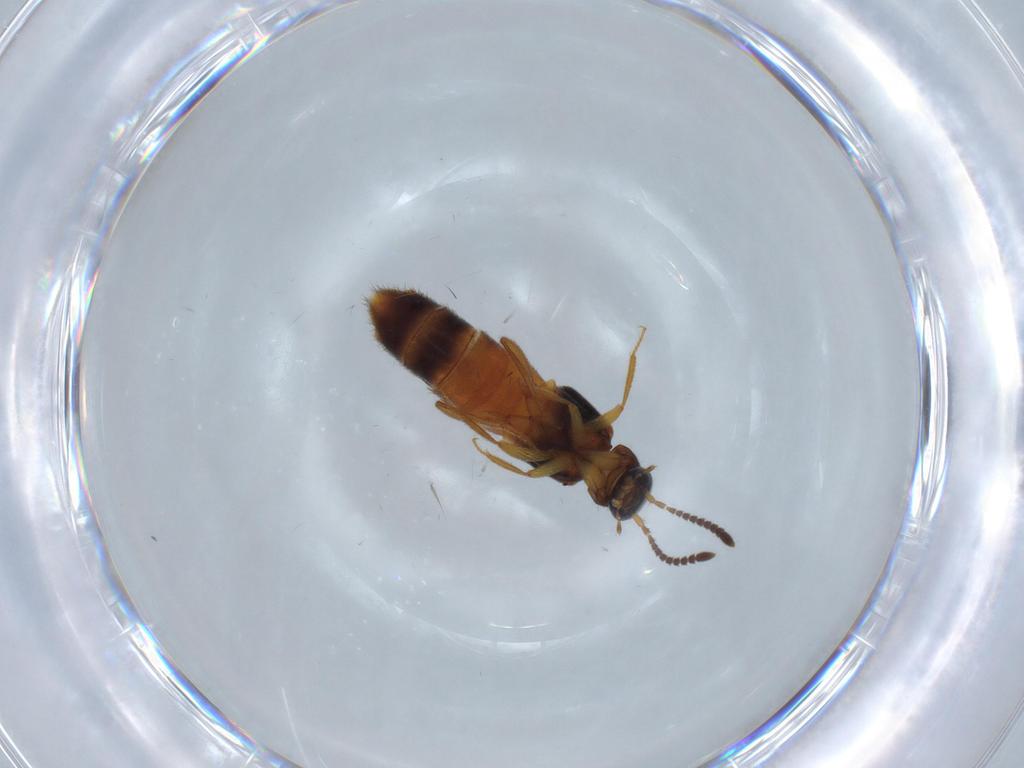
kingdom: Animalia
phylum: Arthropoda
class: Insecta
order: Coleoptera
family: Staphylinidae
